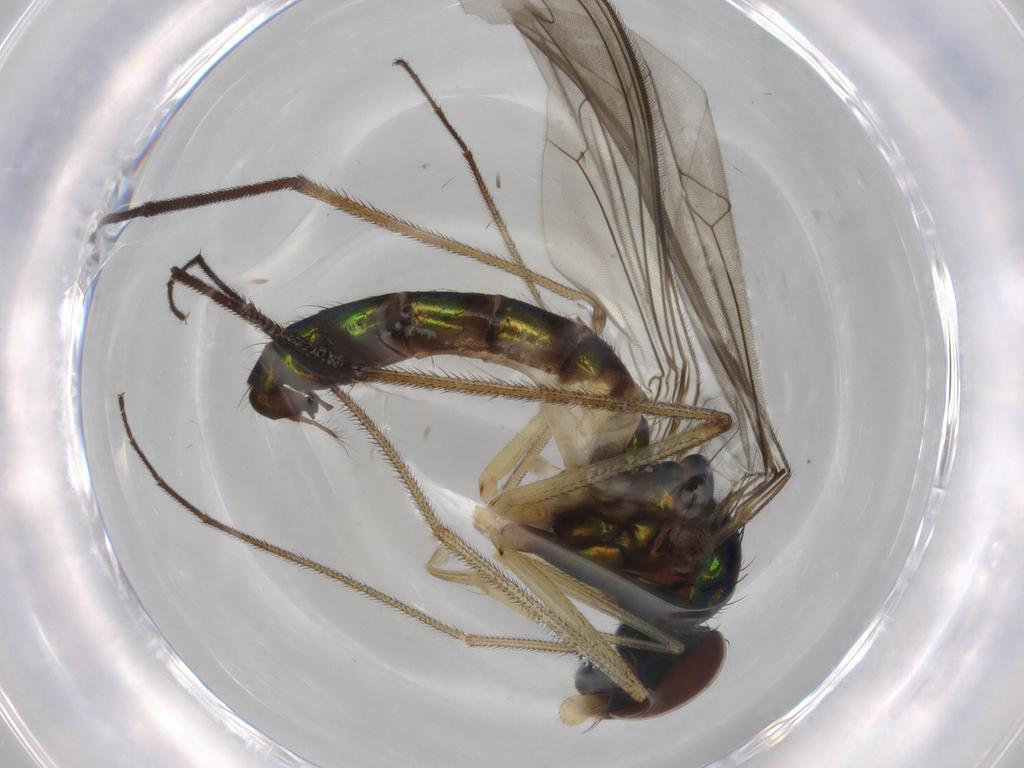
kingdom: Animalia
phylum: Arthropoda
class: Insecta
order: Diptera
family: Dolichopodidae
